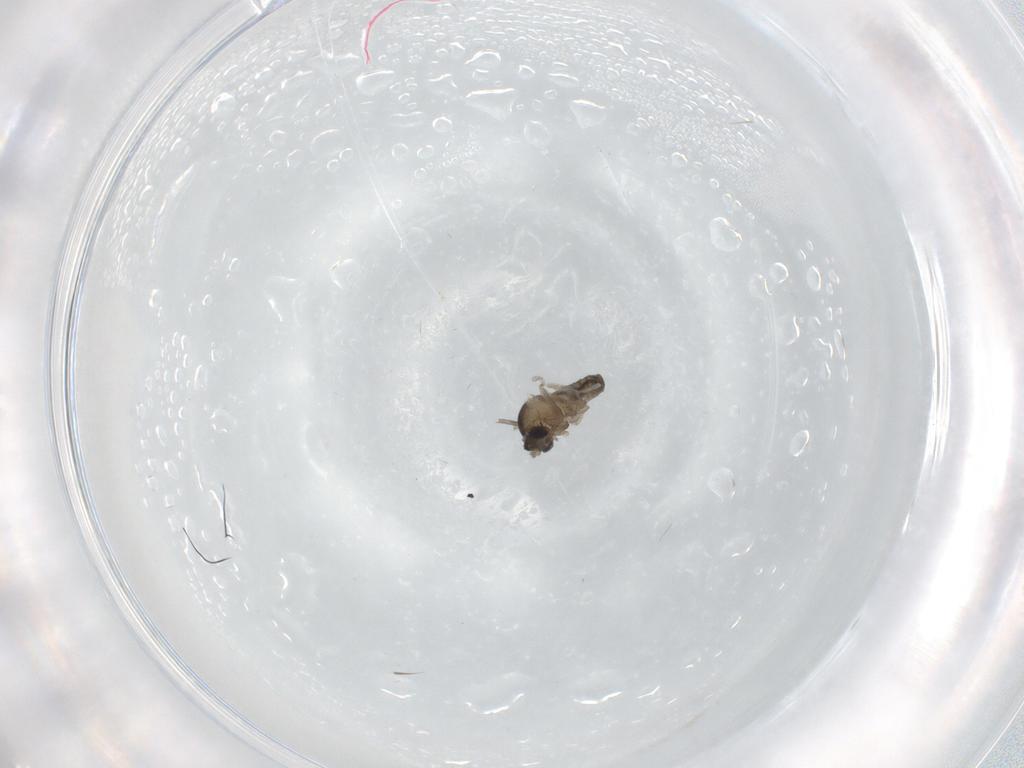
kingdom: Animalia
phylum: Arthropoda
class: Insecta
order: Diptera
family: Cecidomyiidae
